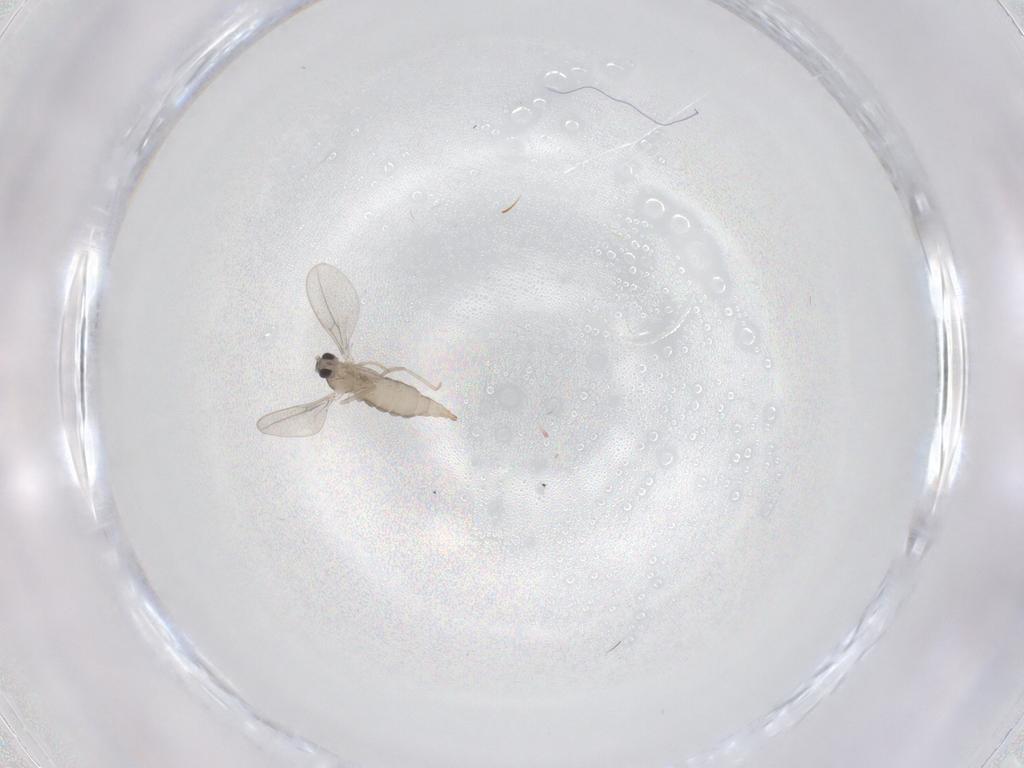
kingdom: Animalia
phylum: Arthropoda
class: Insecta
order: Diptera
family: Cecidomyiidae
